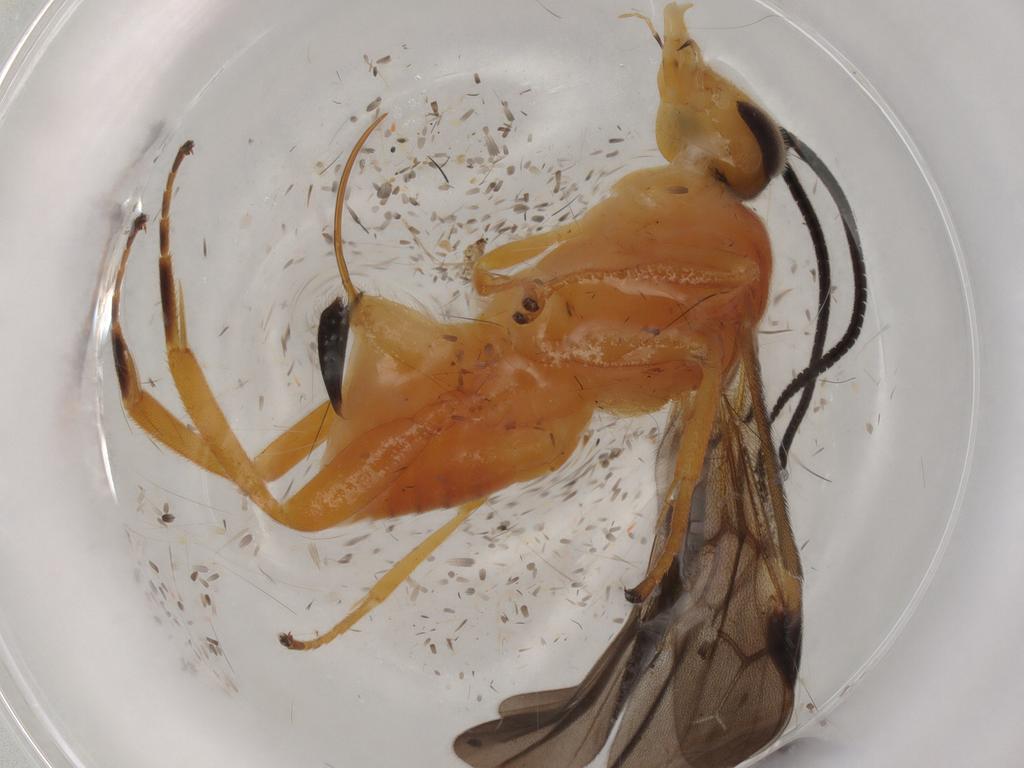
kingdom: Animalia
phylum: Arthropoda
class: Insecta
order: Hymenoptera
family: Braconidae
